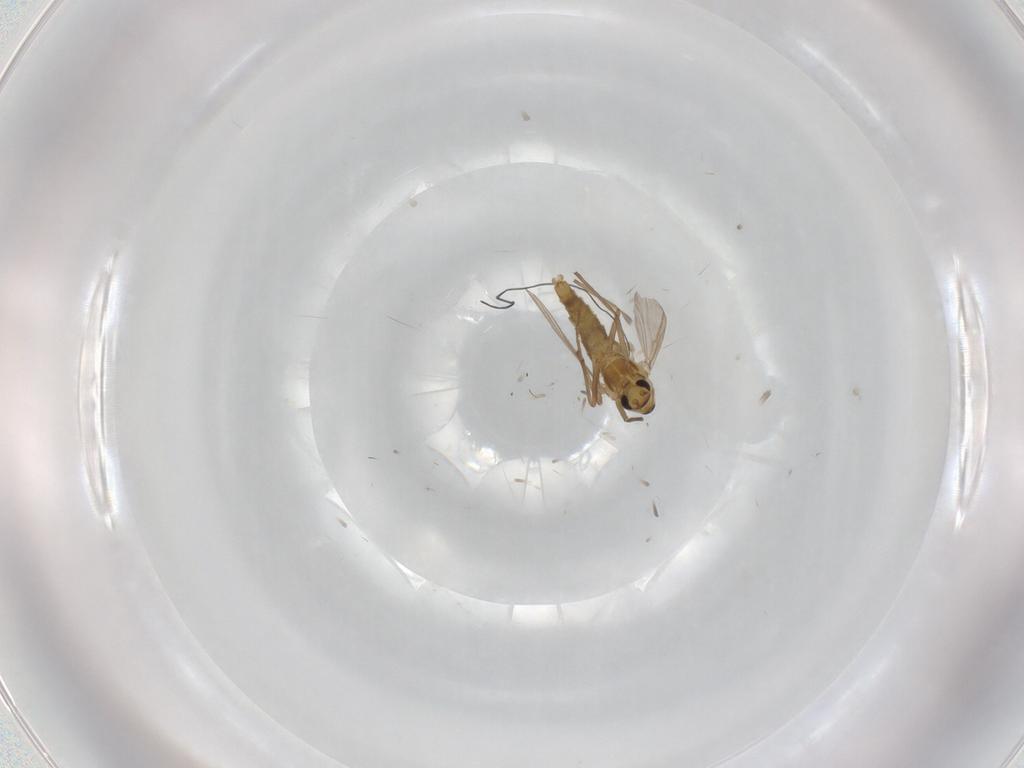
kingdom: Animalia
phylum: Arthropoda
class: Insecta
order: Diptera
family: Chironomidae
